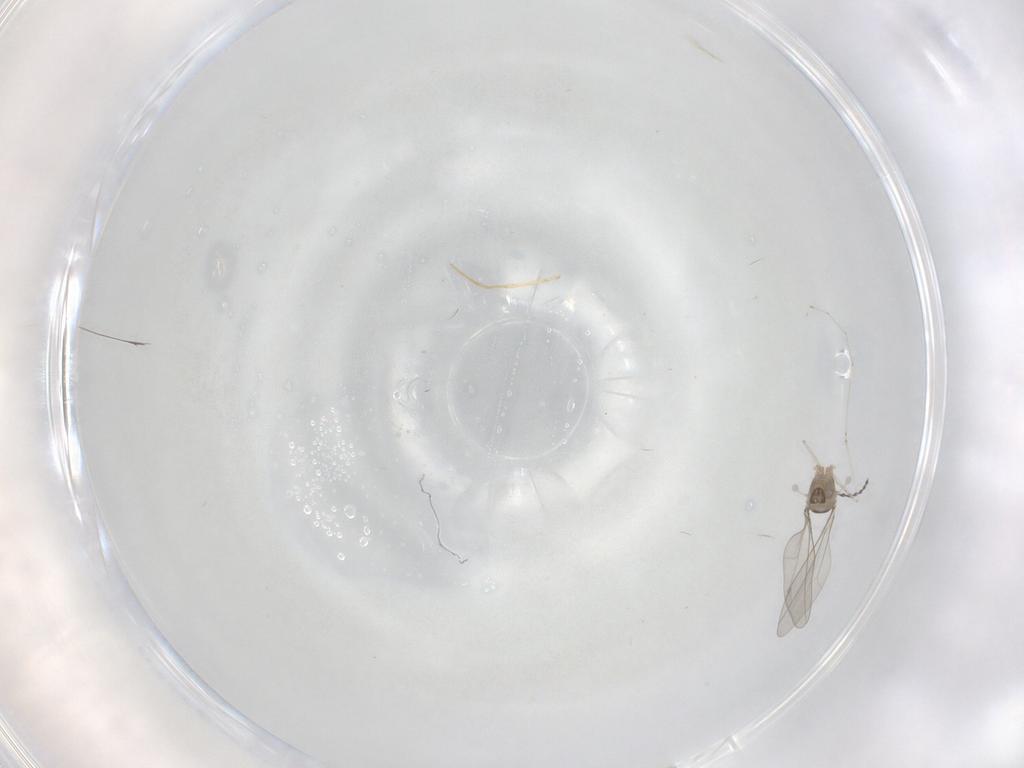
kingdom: Animalia
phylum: Arthropoda
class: Insecta
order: Diptera
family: Cecidomyiidae
